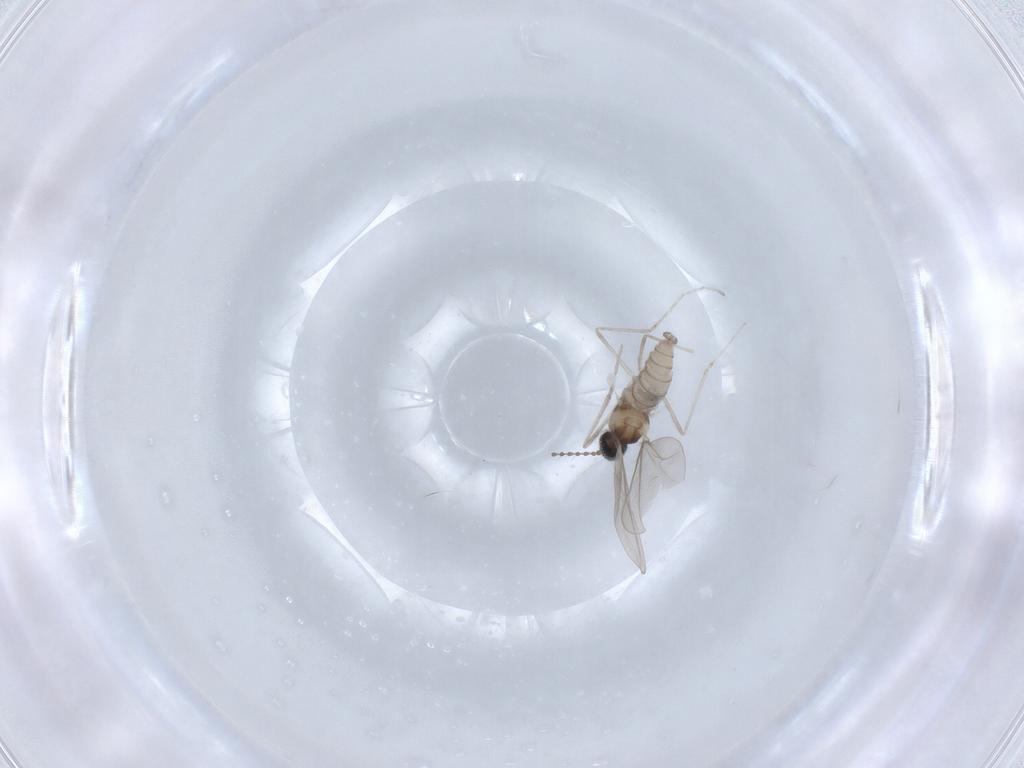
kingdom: Animalia
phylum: Arthropoda
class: Insecta
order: Diptera
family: Cecidomyiidae
